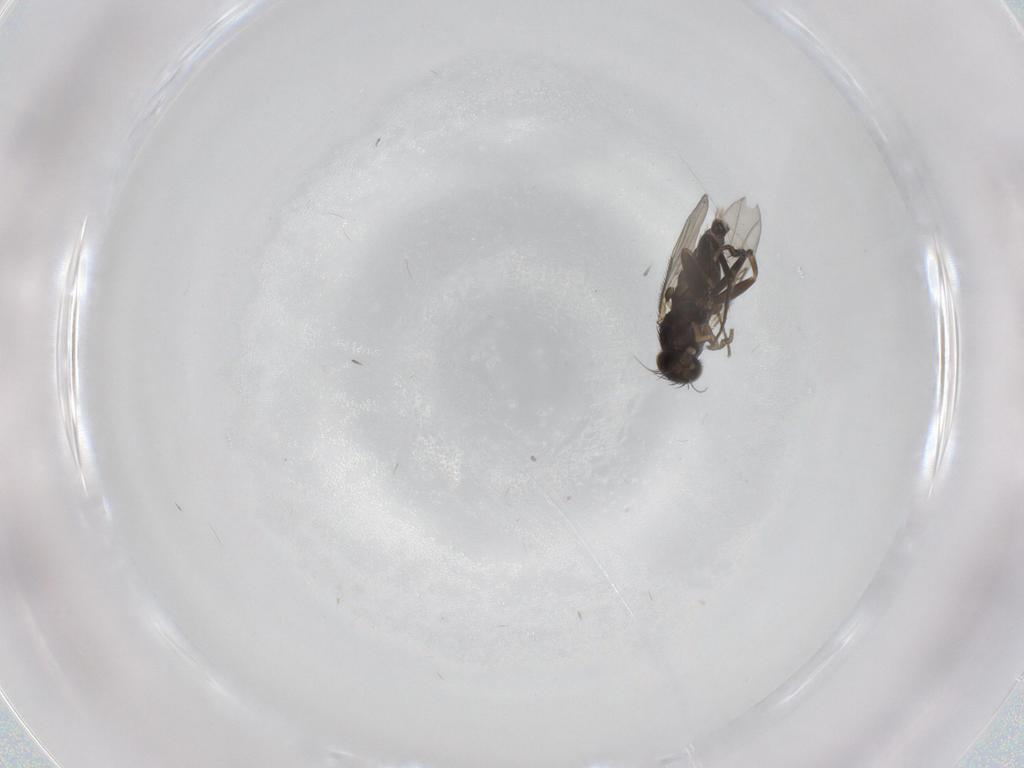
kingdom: Animalia
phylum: Arthropoda
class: Insecta
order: Diptera
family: Phoridae
